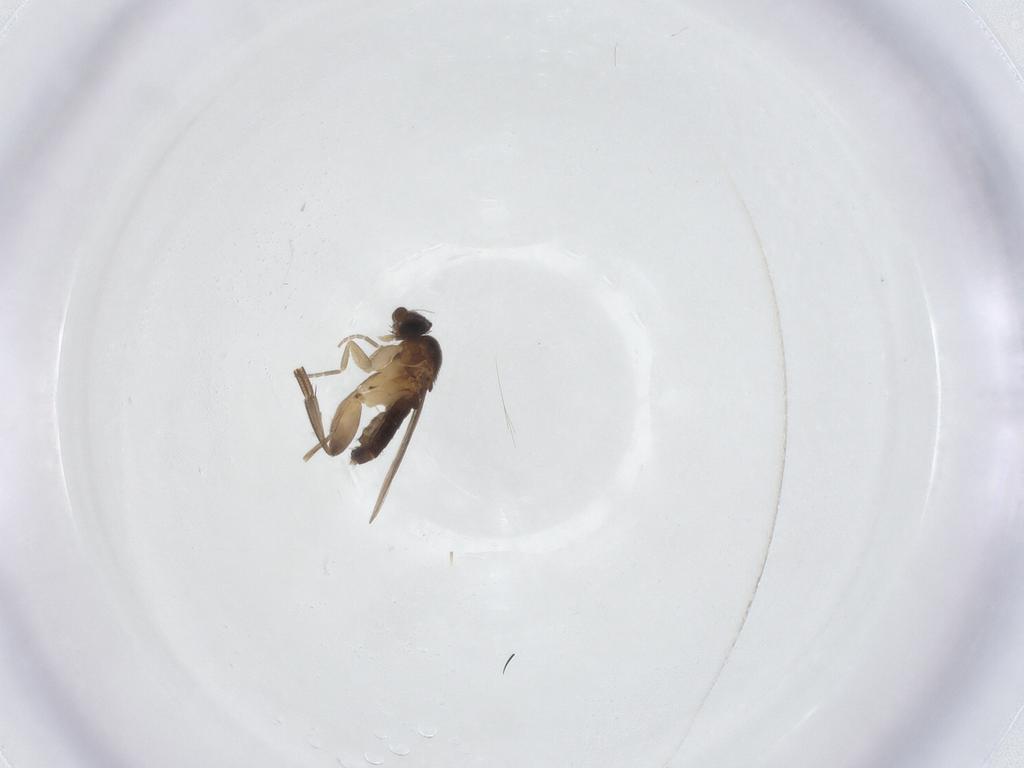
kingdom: Animalia
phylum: Arthropoda
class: Insecta
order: Diptera
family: Phoridae
